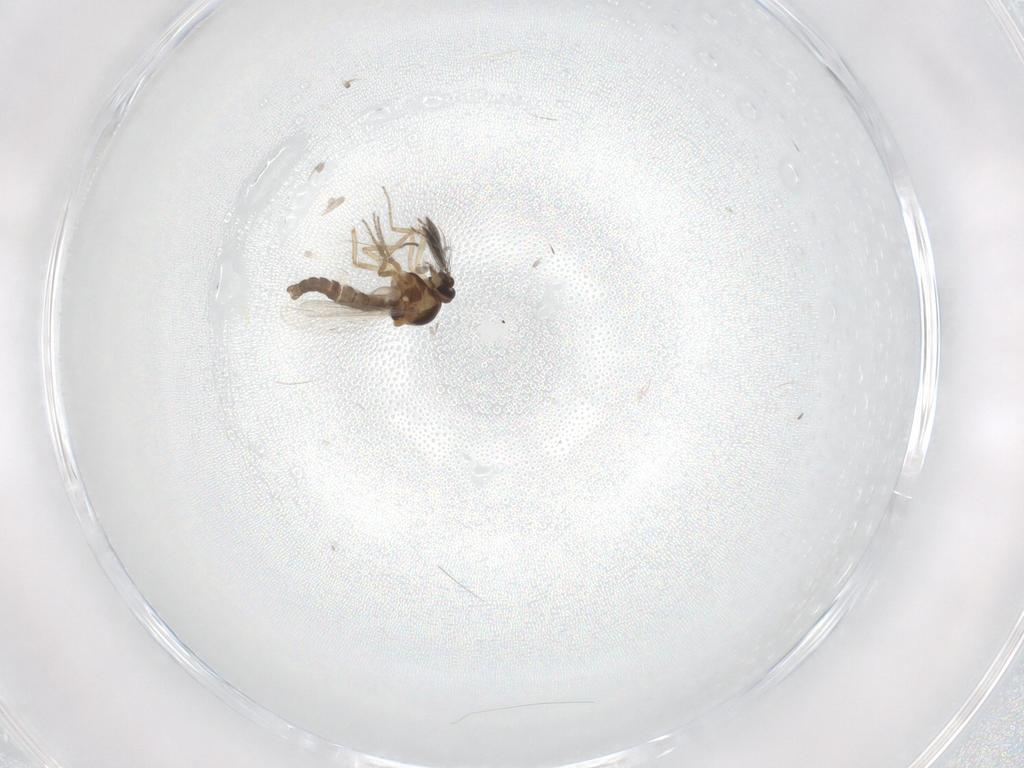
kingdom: Animalia
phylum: Arthropoda
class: Insecta
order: Diptera
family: Ceratopogonidae
